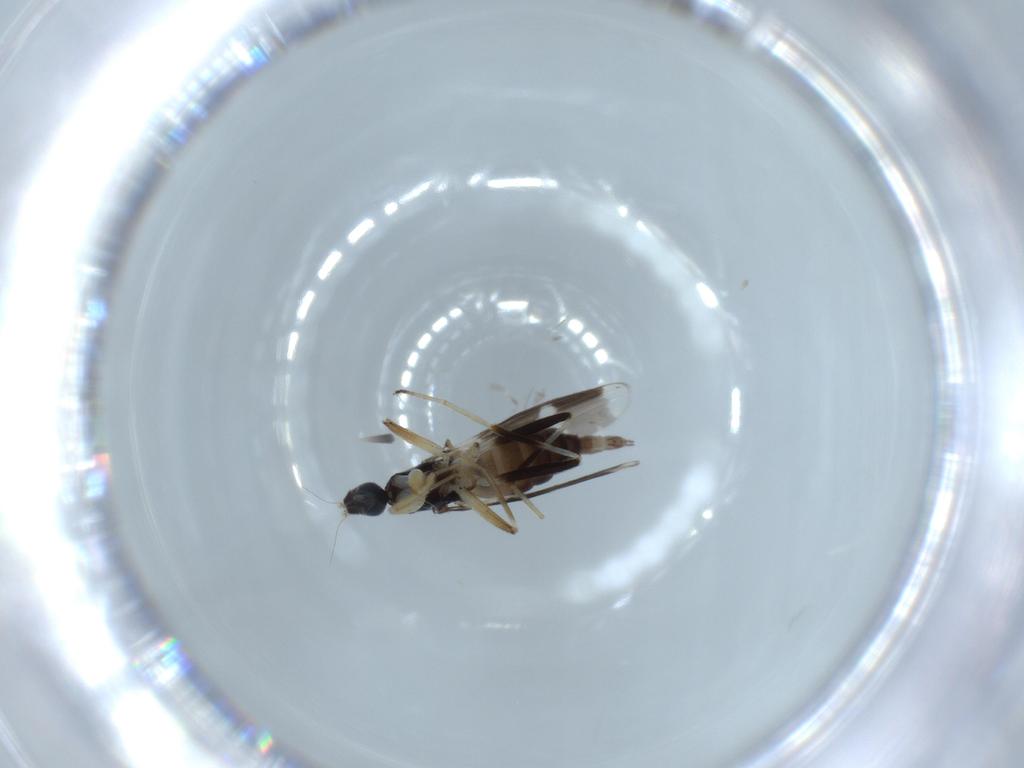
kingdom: Animalia
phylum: Arthropoda
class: Insecta
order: Diptera
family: Hybotidae
